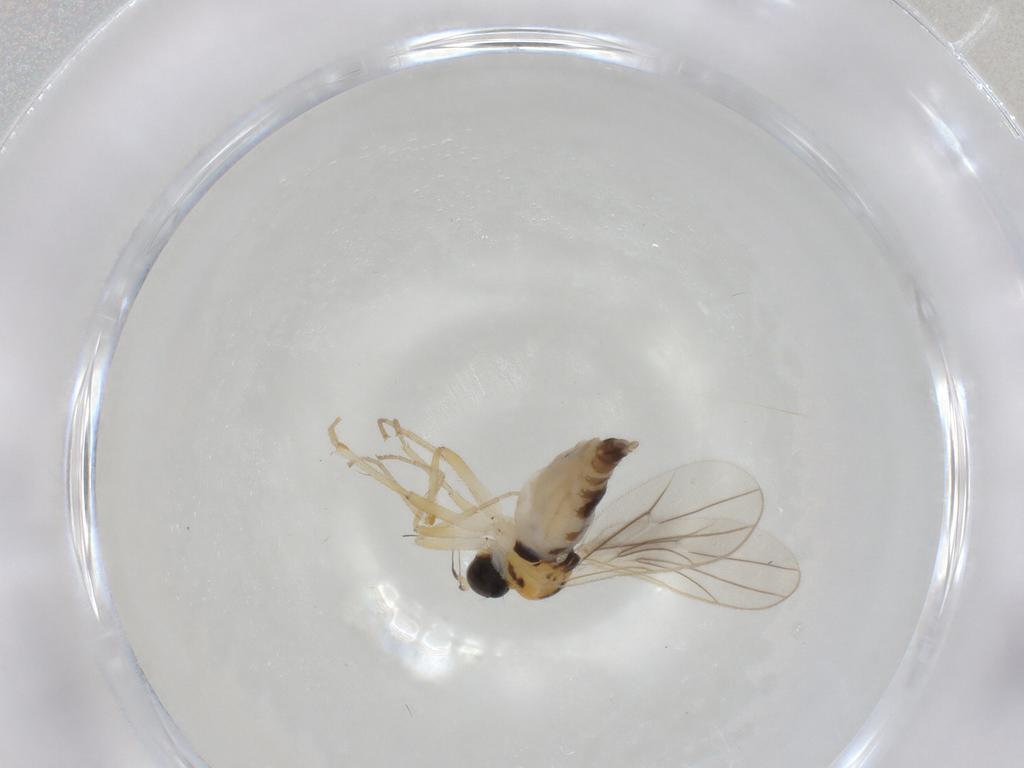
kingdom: Animalia
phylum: Arthropoda
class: Insecta
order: Diptera
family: Hybotidae
